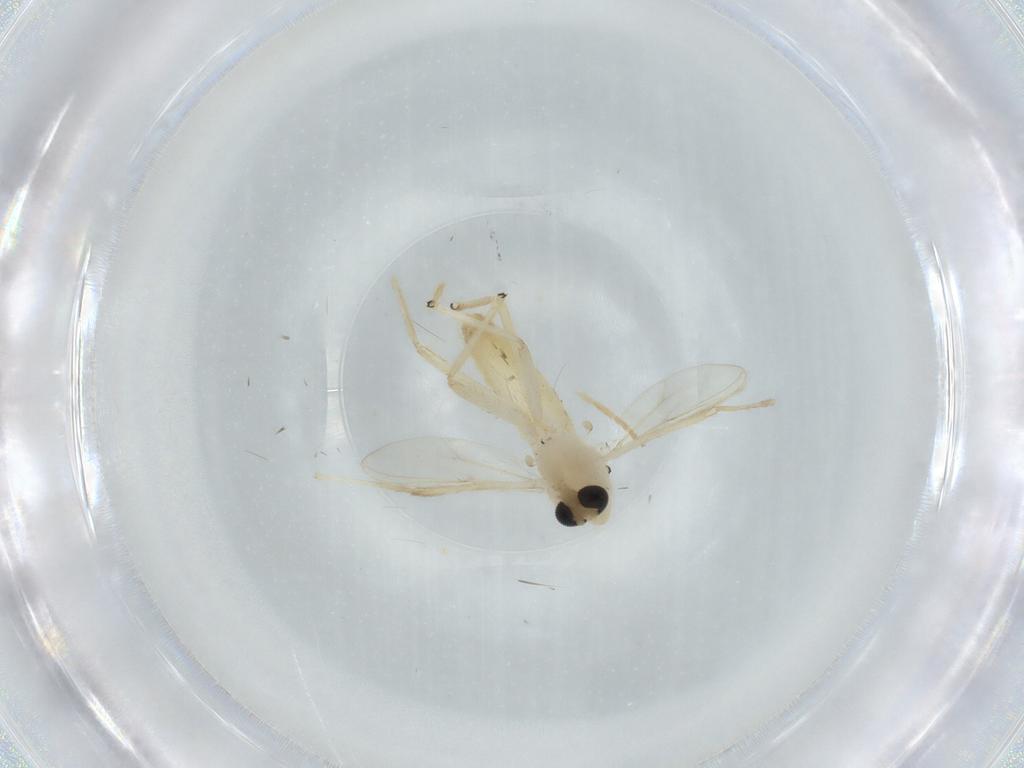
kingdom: Animalia
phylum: Arthropoda
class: Insecta
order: Diptera
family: Chironomidae
